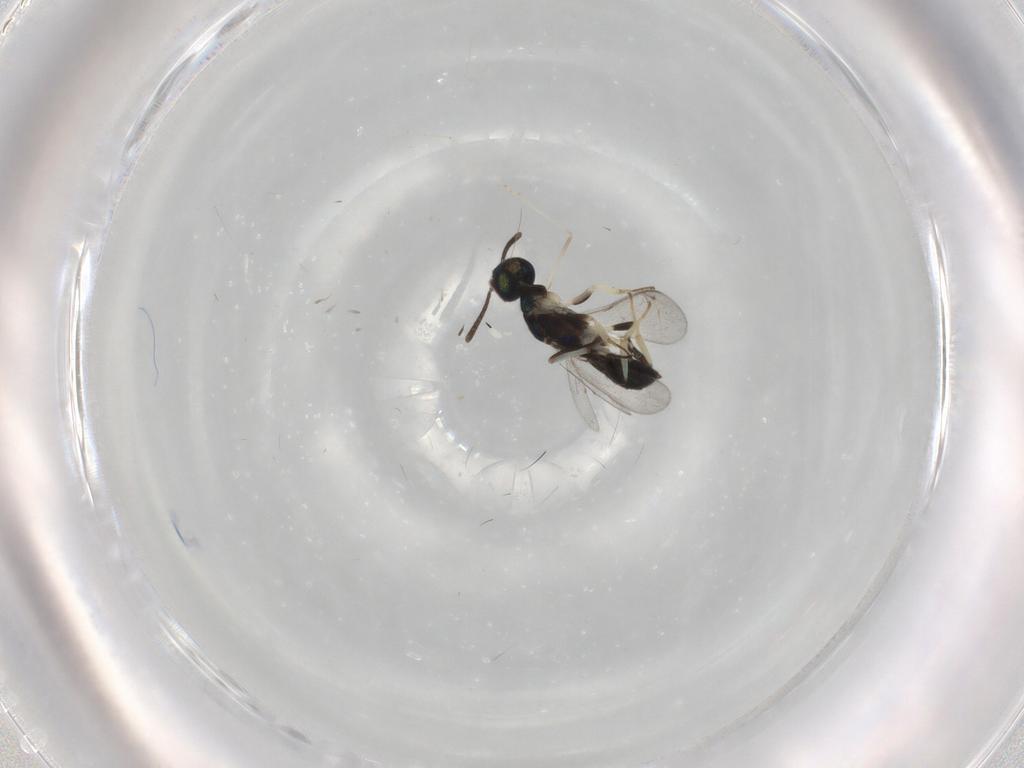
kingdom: Animalia
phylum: Arthropoda
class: Insecta
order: Hymenoptera
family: Eupelmidae
